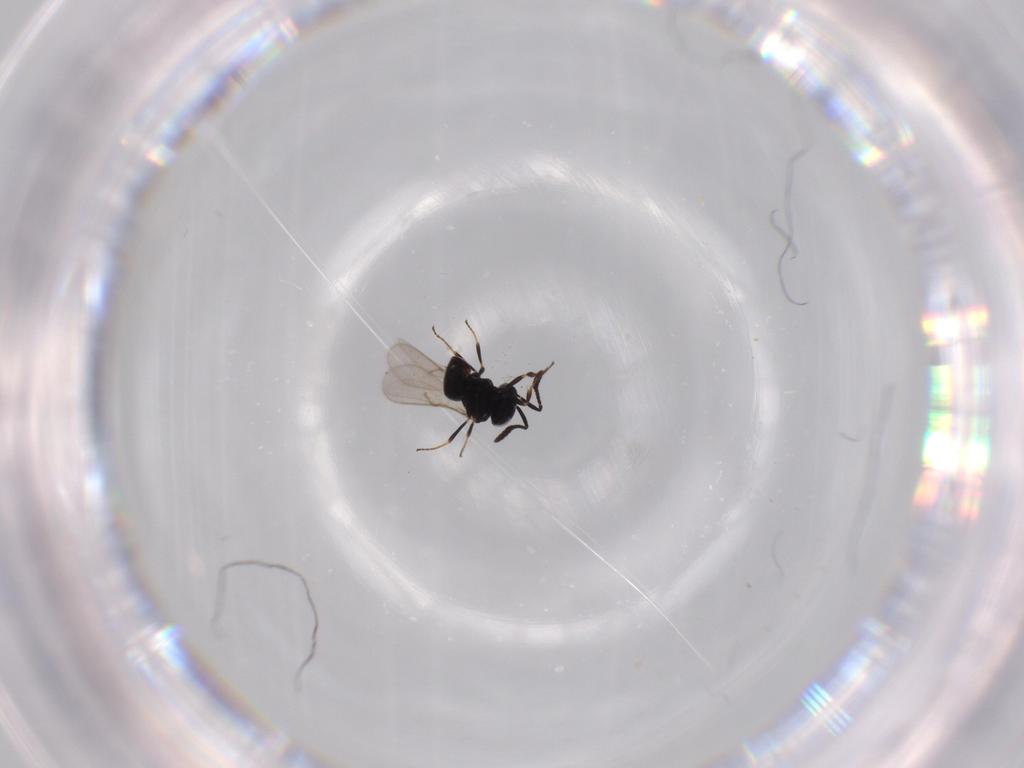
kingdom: Animalia
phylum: Arthropoda
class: Insecta
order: Hymenoptera
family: Scelionidae
